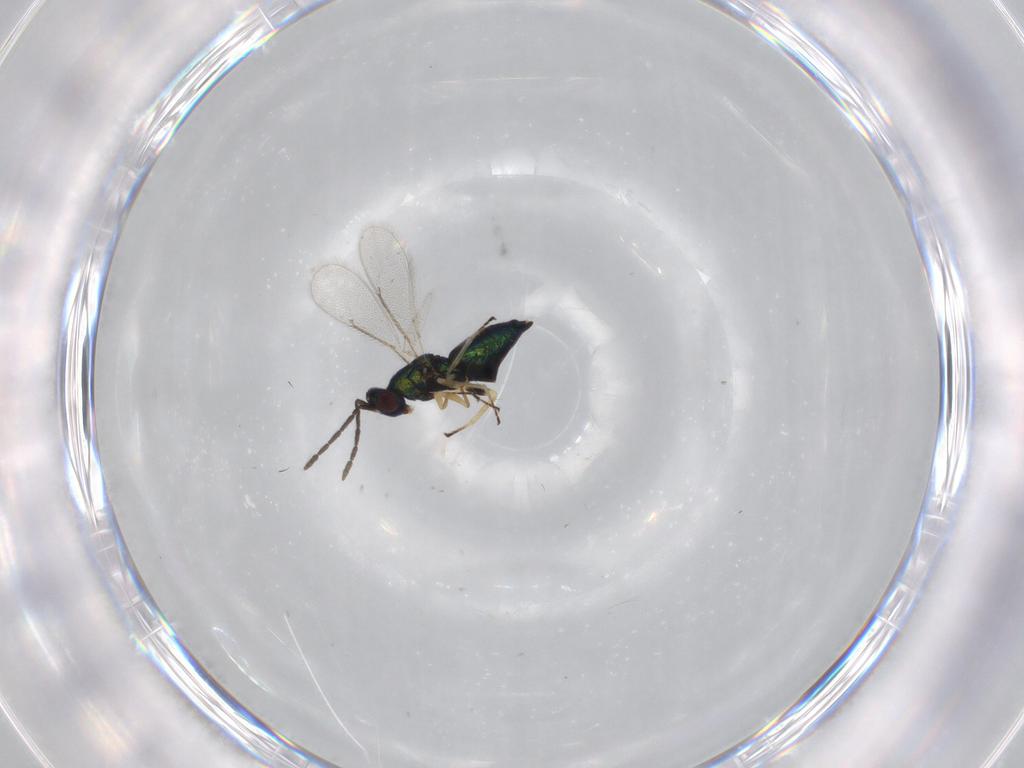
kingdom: Animalia
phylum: Arthropoda
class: Insecta
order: Hymenoptera
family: Eulophidae
